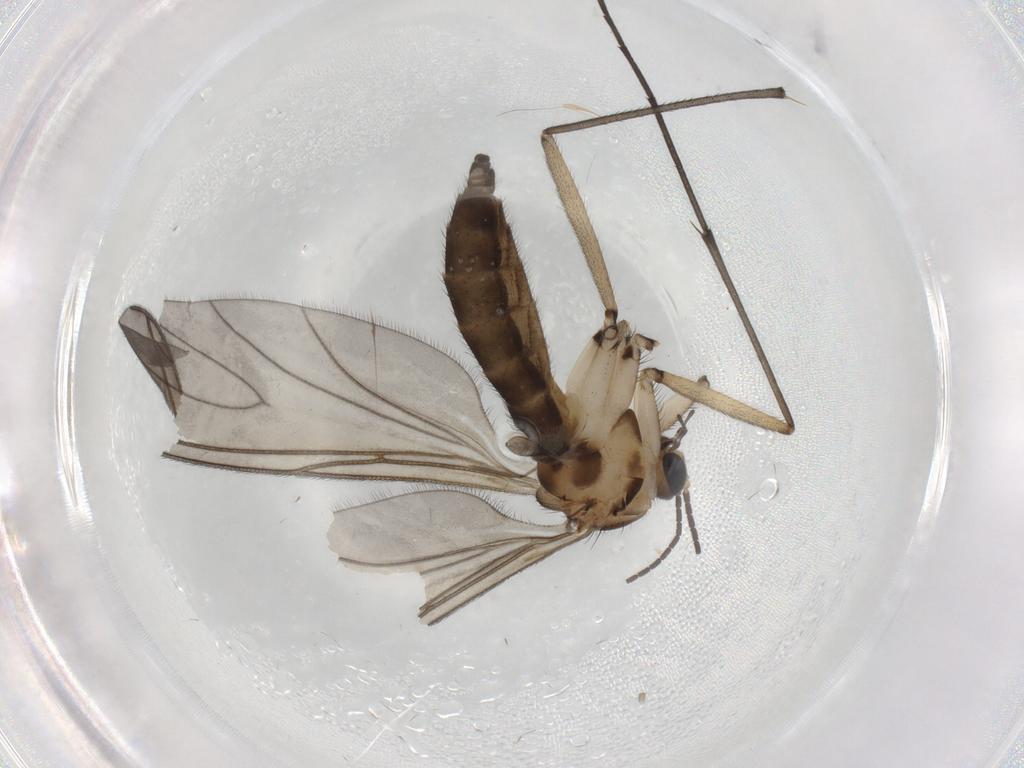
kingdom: Animalia
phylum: Arthropoda
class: Insecta
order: Diptera
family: Sciaridae
